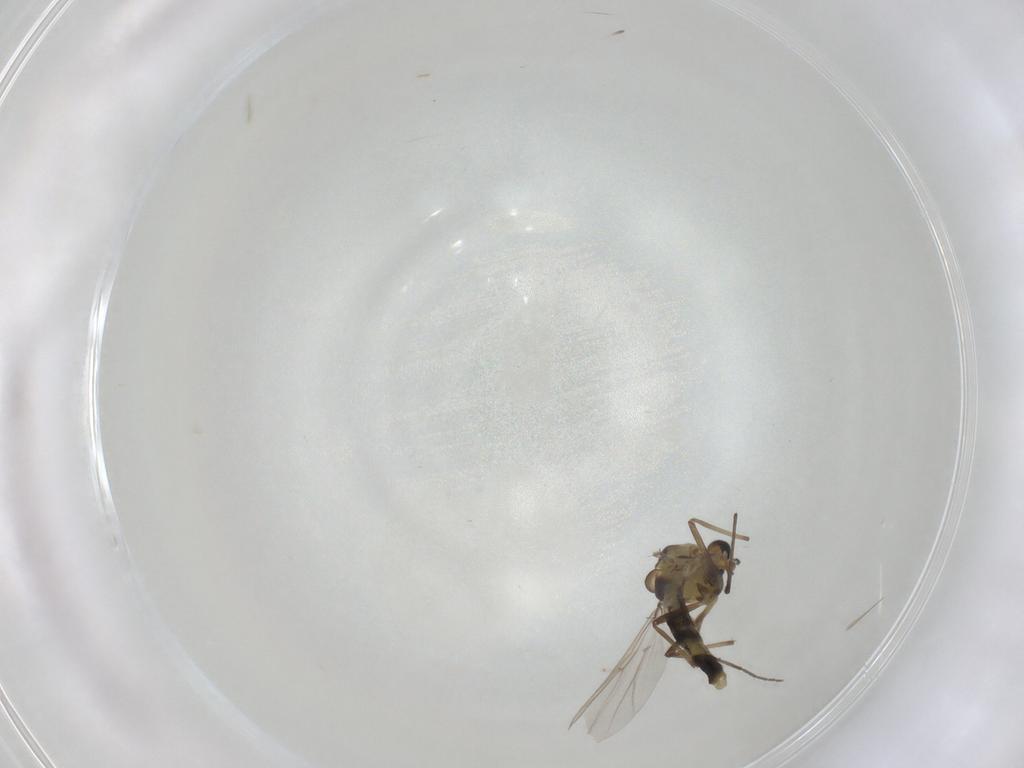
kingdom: Animalia
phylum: Arthropoda
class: Insecta
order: Diptera
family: Chironomidae
